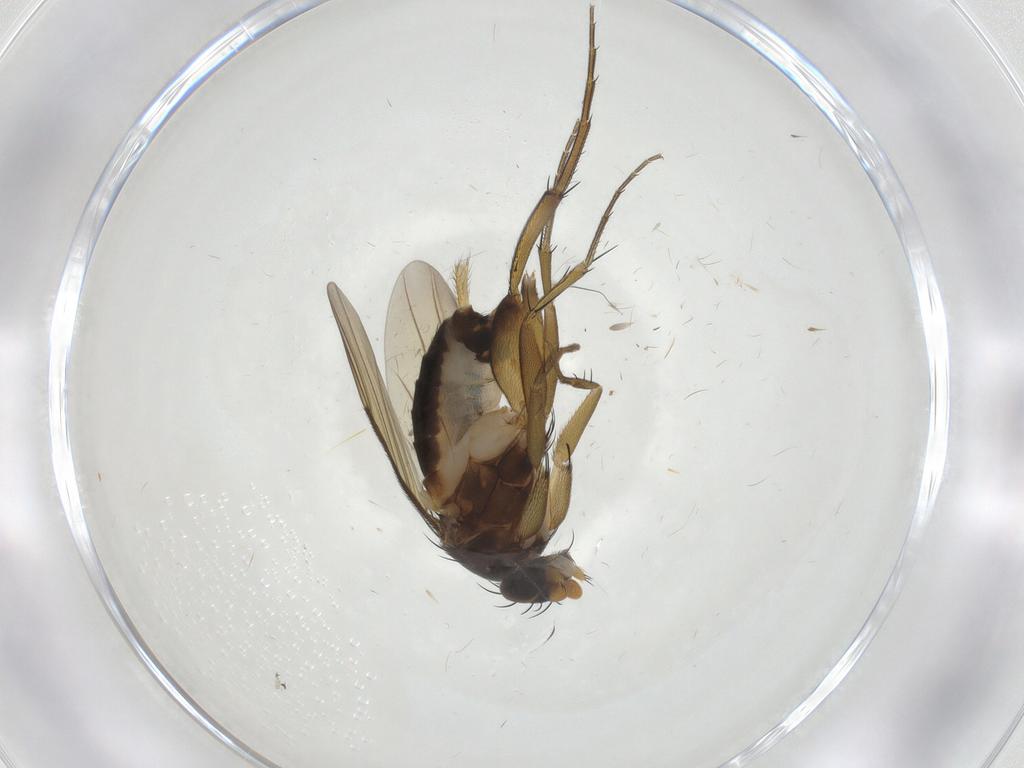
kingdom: Animalia
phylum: Arthropoda
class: Insecta
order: Diptera
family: Phoridae
